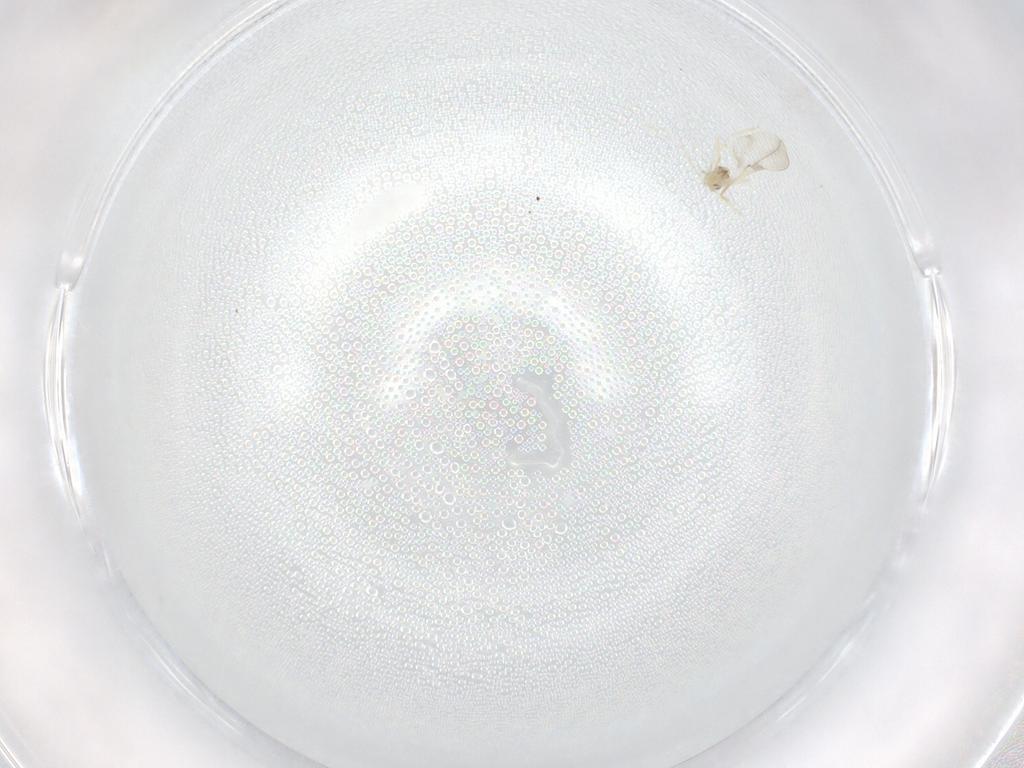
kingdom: Animalia
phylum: Arthropoda
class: Insecta
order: Diptera
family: Cecidomyiidae
